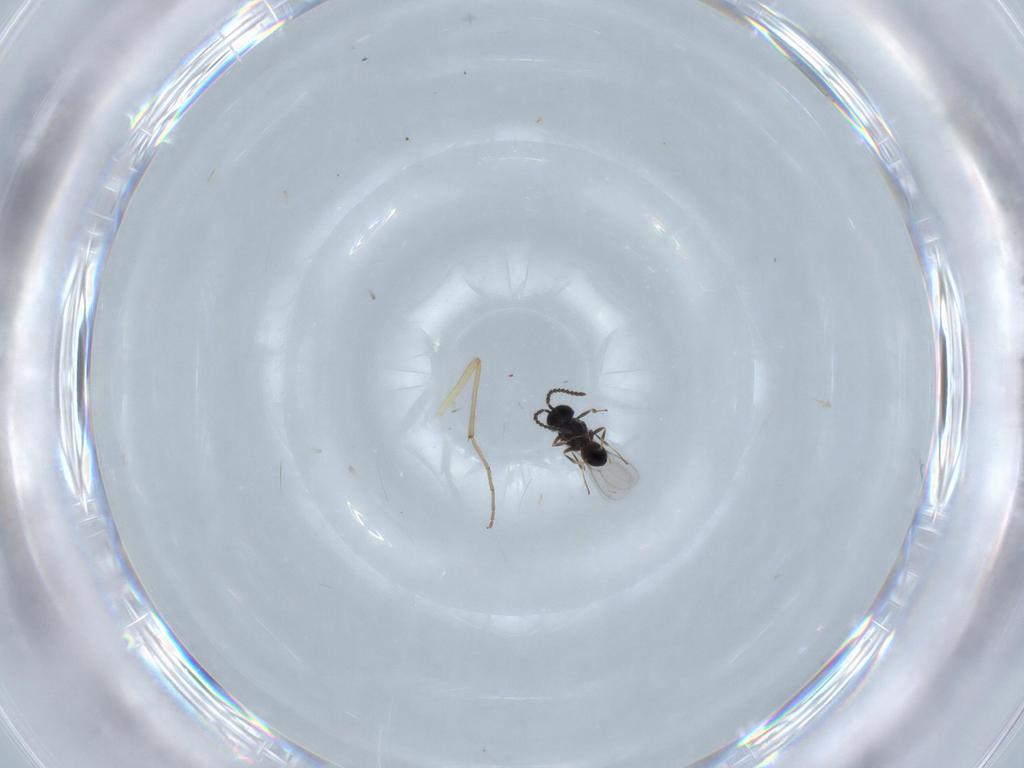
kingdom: Animalia
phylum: Arthropoda
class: Insecta
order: Hymenoptera
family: Scelionidae
